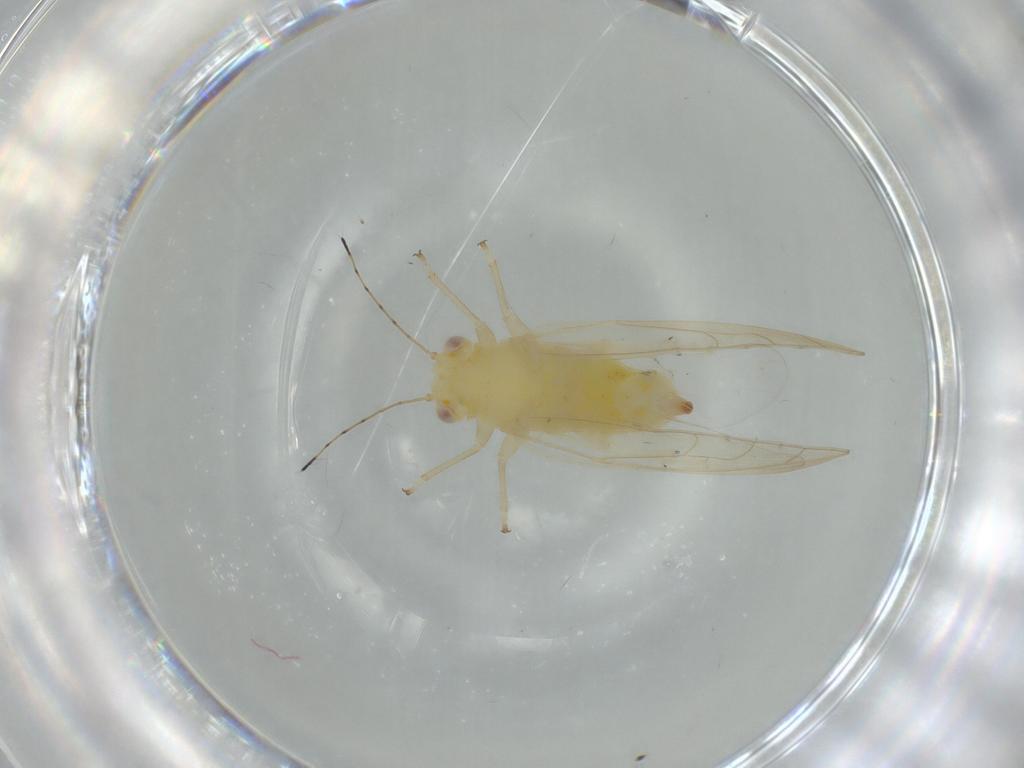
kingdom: Animalia
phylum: Arthropoda
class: Insecta
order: Hemiptera
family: Triozidae
